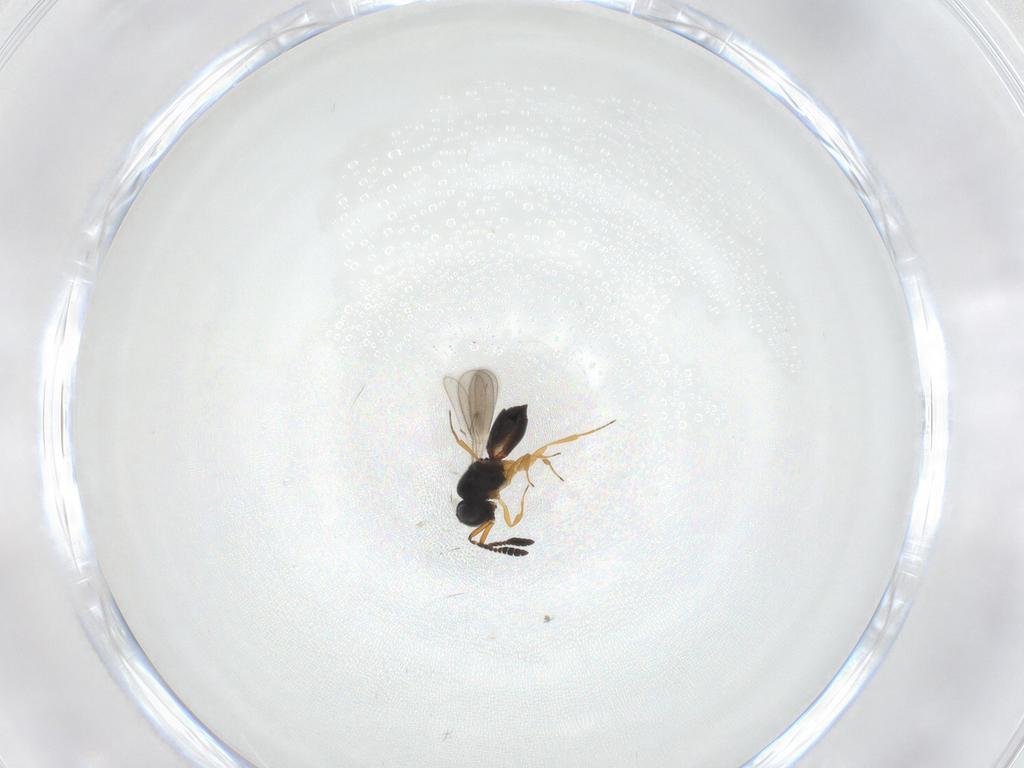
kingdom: Animalia
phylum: Arthropoda
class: Insecta
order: Hymenoptera
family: Scelionidae
